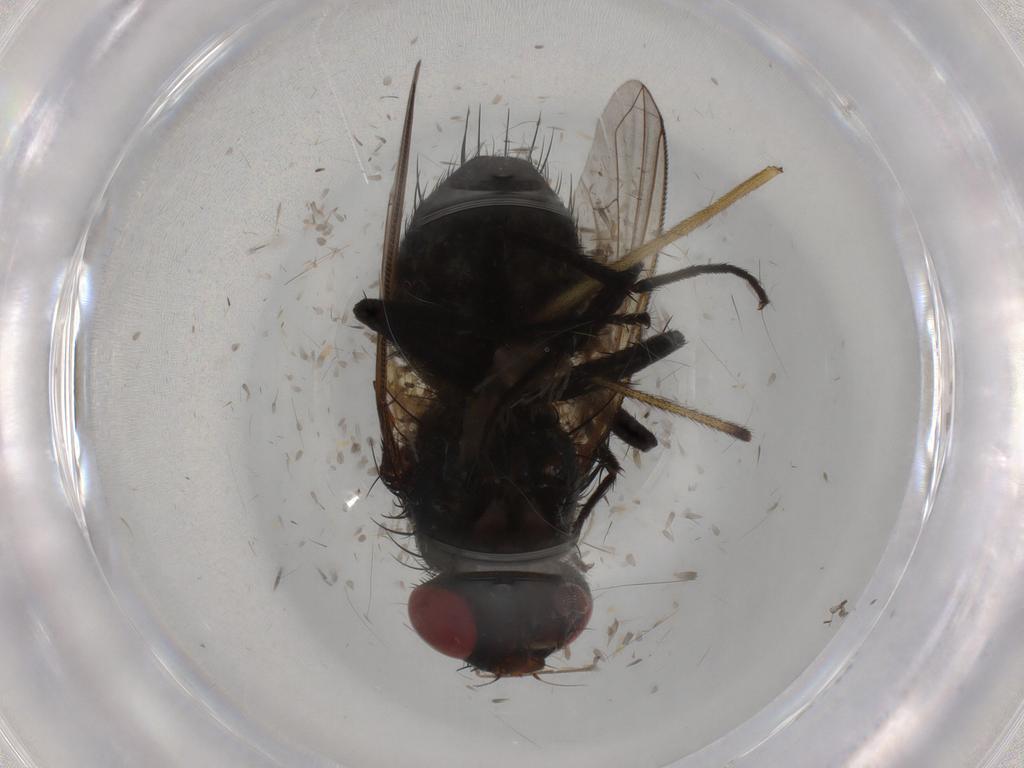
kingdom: Animalia
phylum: Arthropoda
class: Insecta
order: Diptera
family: Tachinidae
